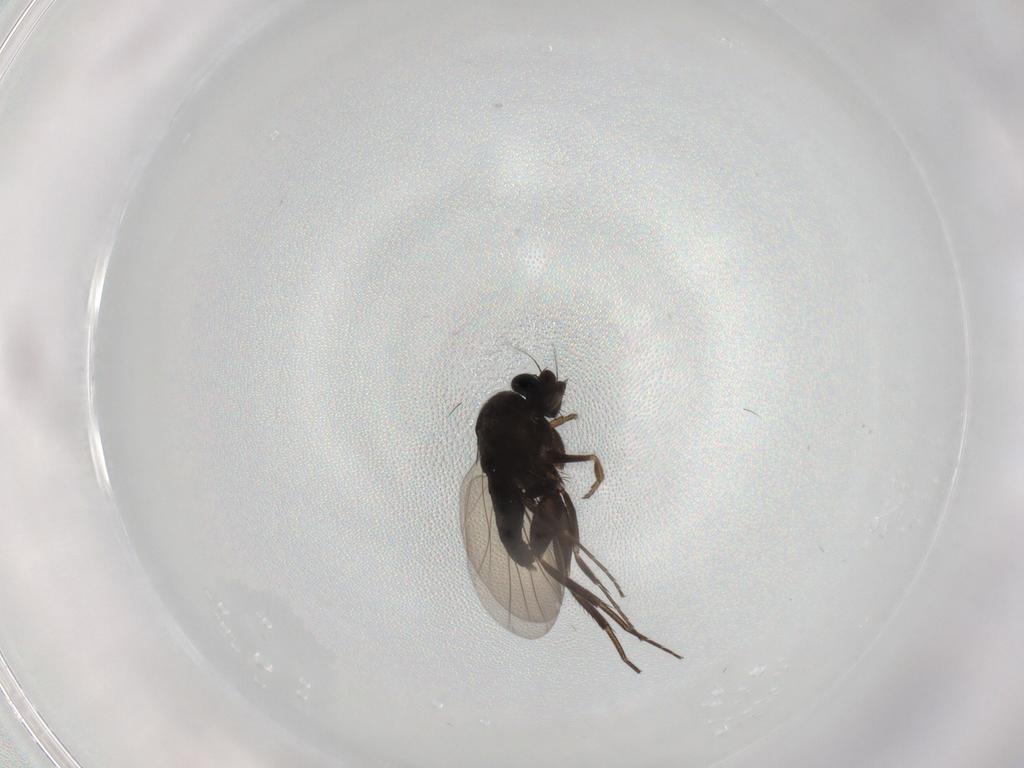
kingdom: Animalia
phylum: Arthropoda
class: Insecta
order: Diptera
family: Phoridae
